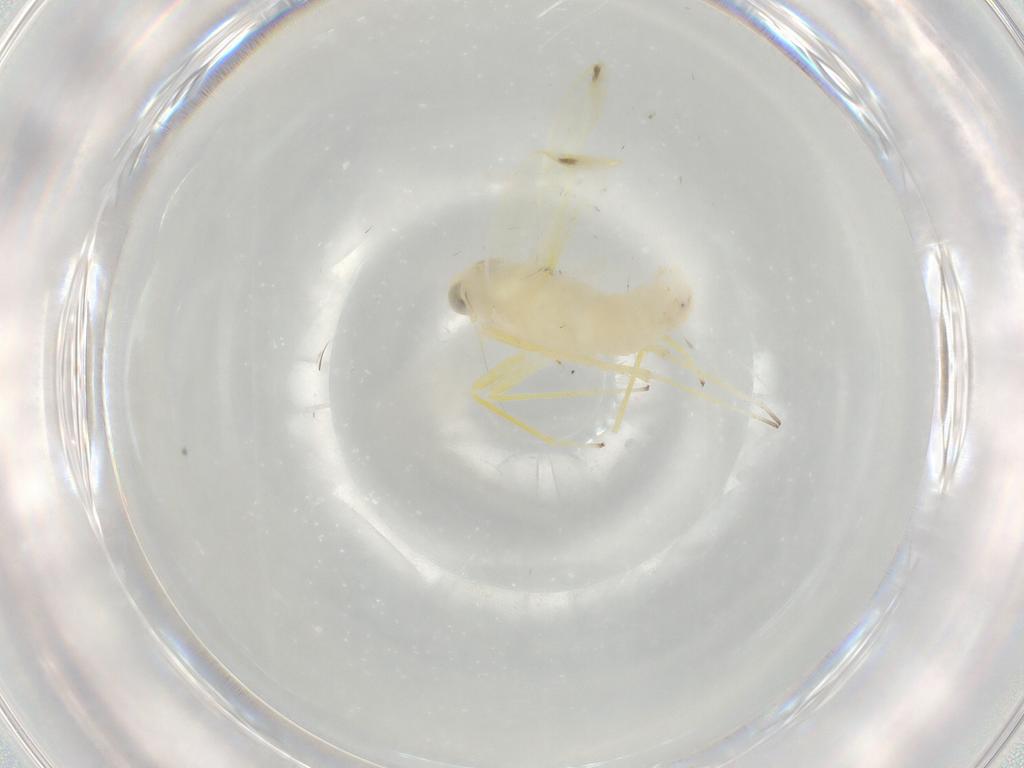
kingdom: Animalia
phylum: Arthropoda
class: Insecta
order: Hemiptera
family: Cicadellidae
